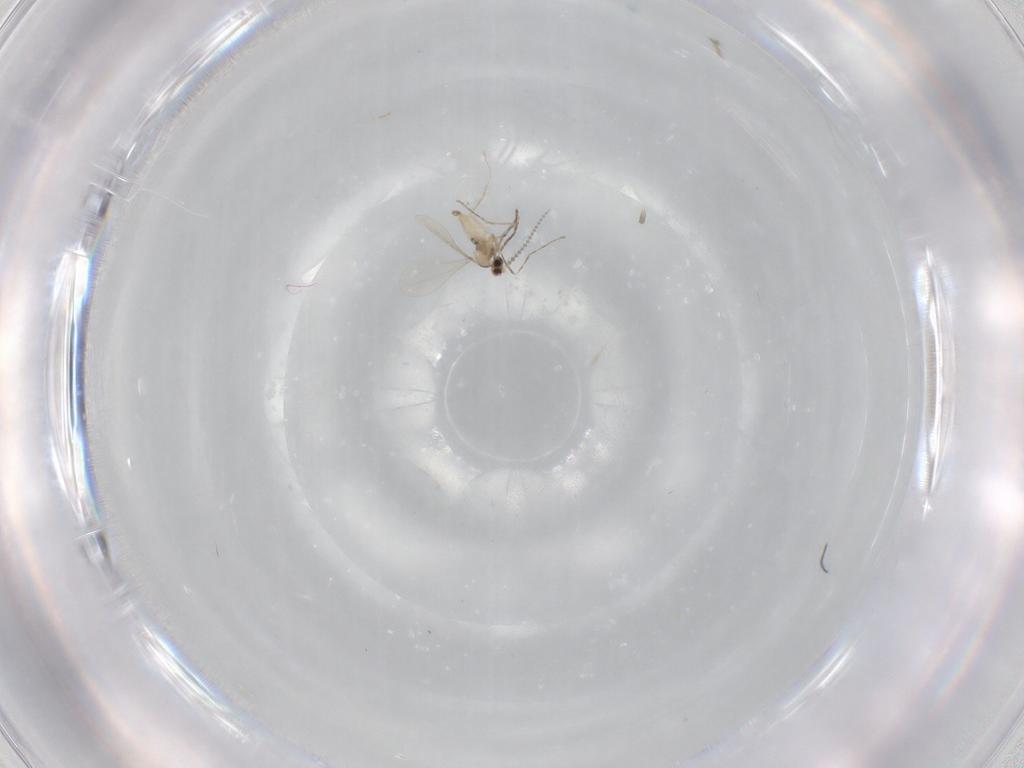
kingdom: Animalia
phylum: Arthropoda
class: Insecta
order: Diptera
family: Cecidomyiidae
